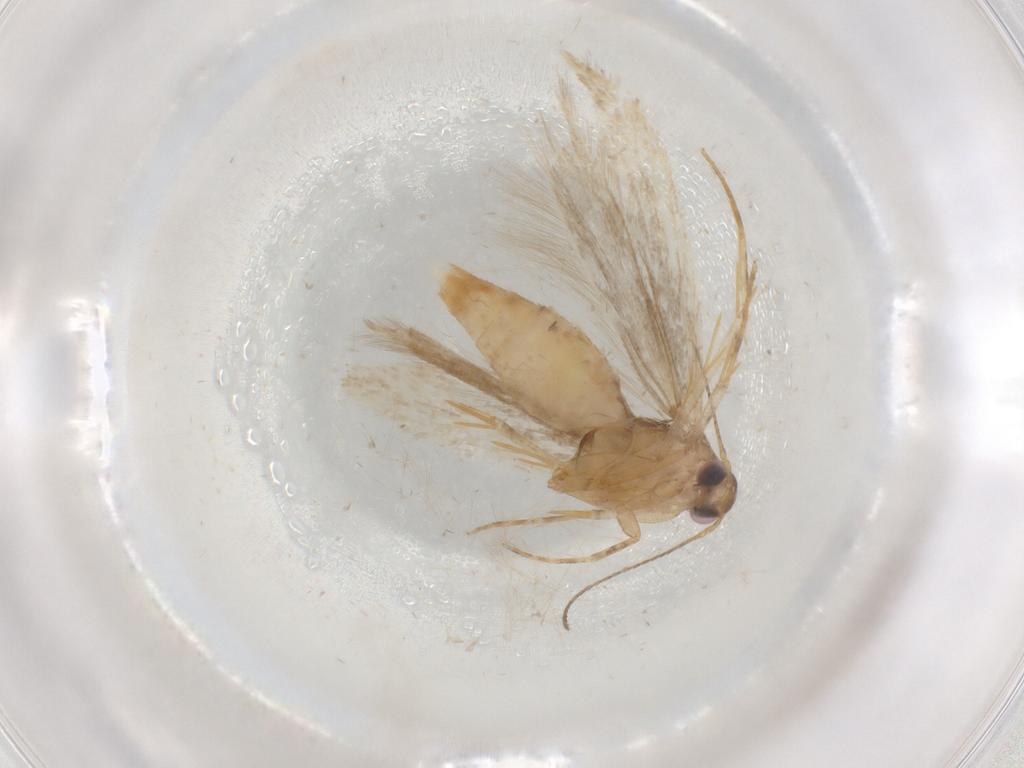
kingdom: Animalia
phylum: Arthropoda
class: Insecta
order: Lepidoptera
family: Gelechiidae
